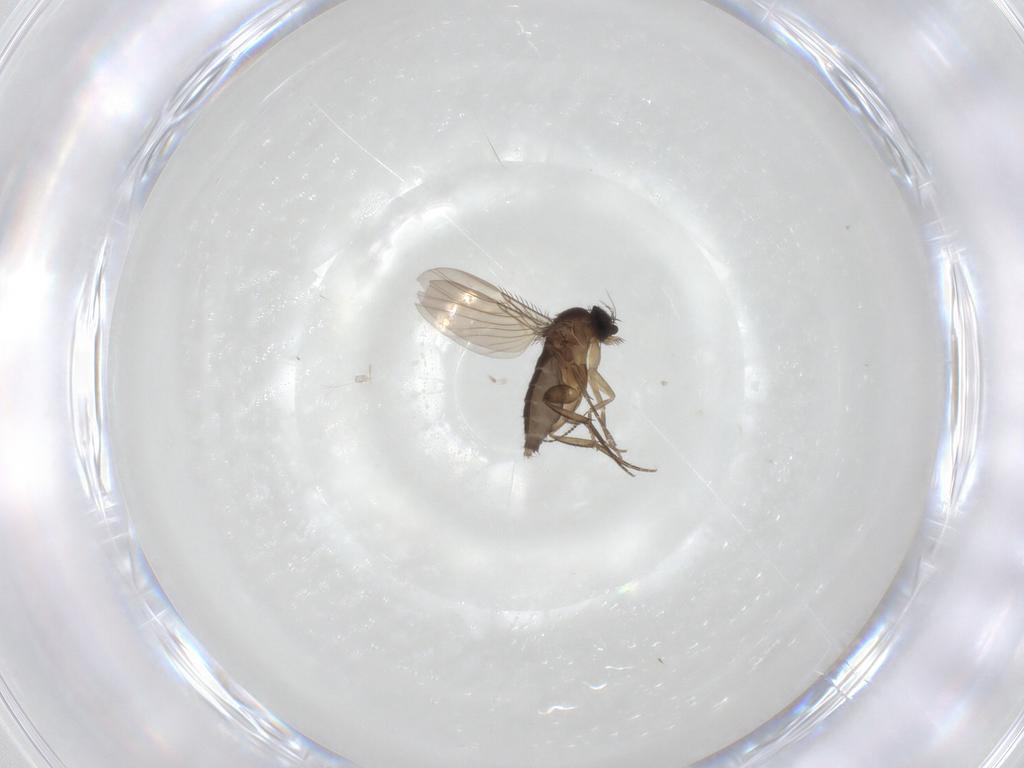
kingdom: Animalia
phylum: Arthropoda
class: Insecta
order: Diptera
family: Phoridae
